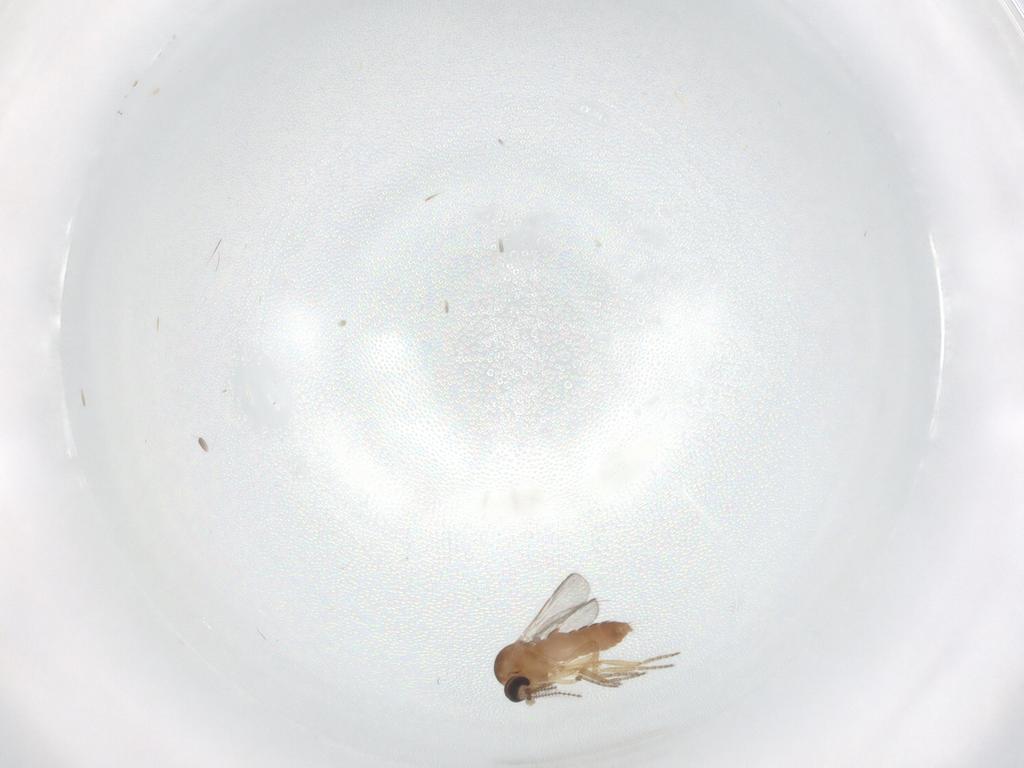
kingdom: Animalia
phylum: Arthropoda
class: Insecta
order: Diptera
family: Ceratopogonidae
